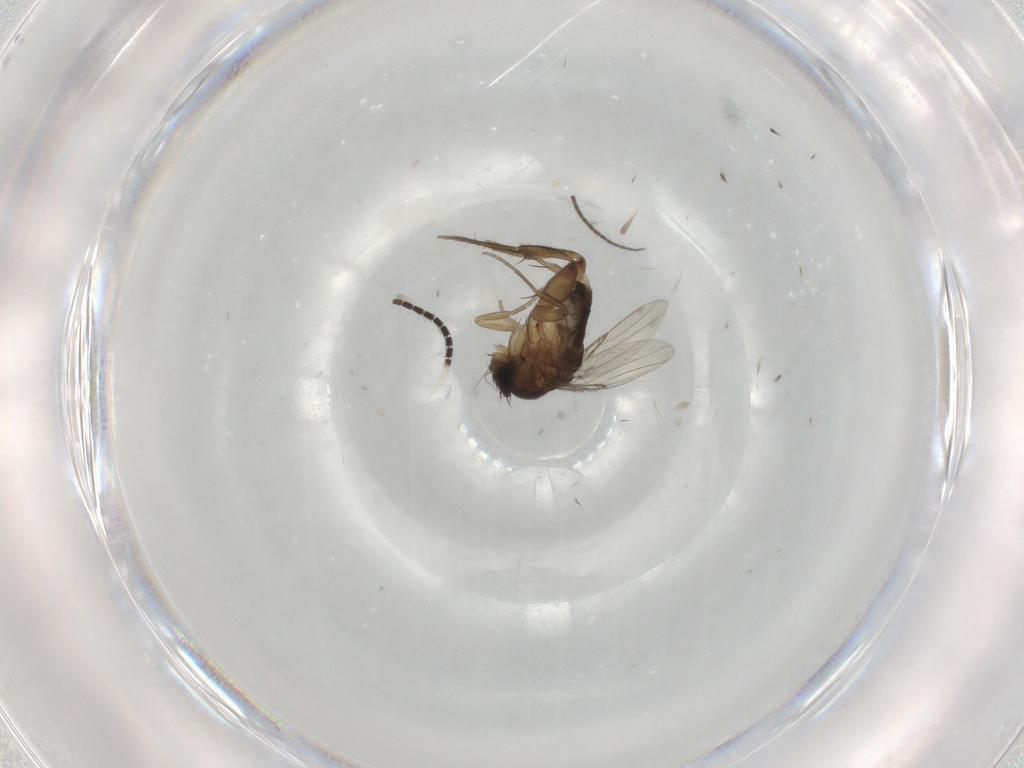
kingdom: Animalia
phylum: Arthropoda
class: Insecta
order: Diptera
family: Phoridae
